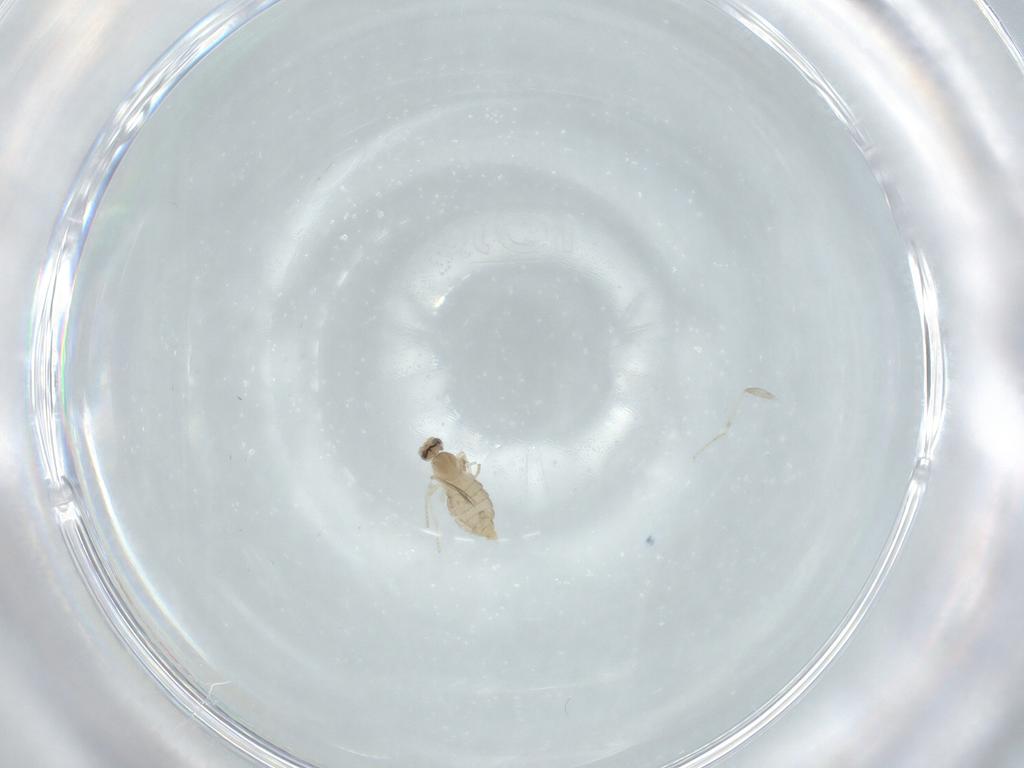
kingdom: Animalia
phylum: Arthropoda
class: Insecta
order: Diptera
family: Cecidomyiidae
